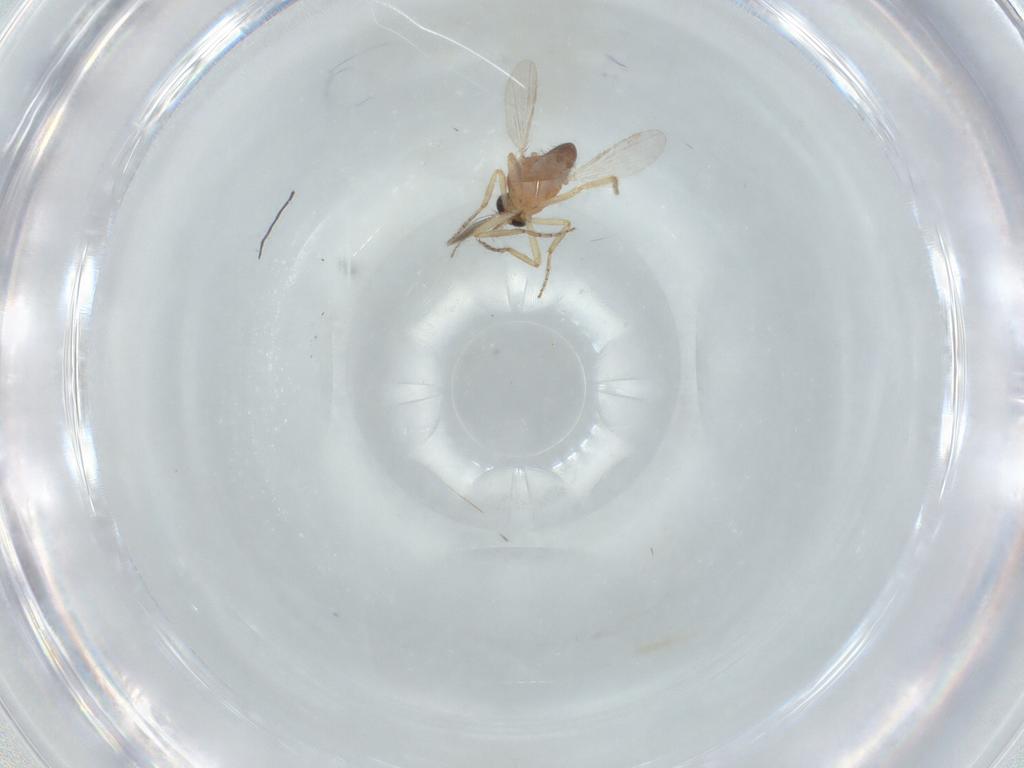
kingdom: Animalia
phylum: Arthropoda
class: Insecta
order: Diptera
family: Ceratopogonidae
